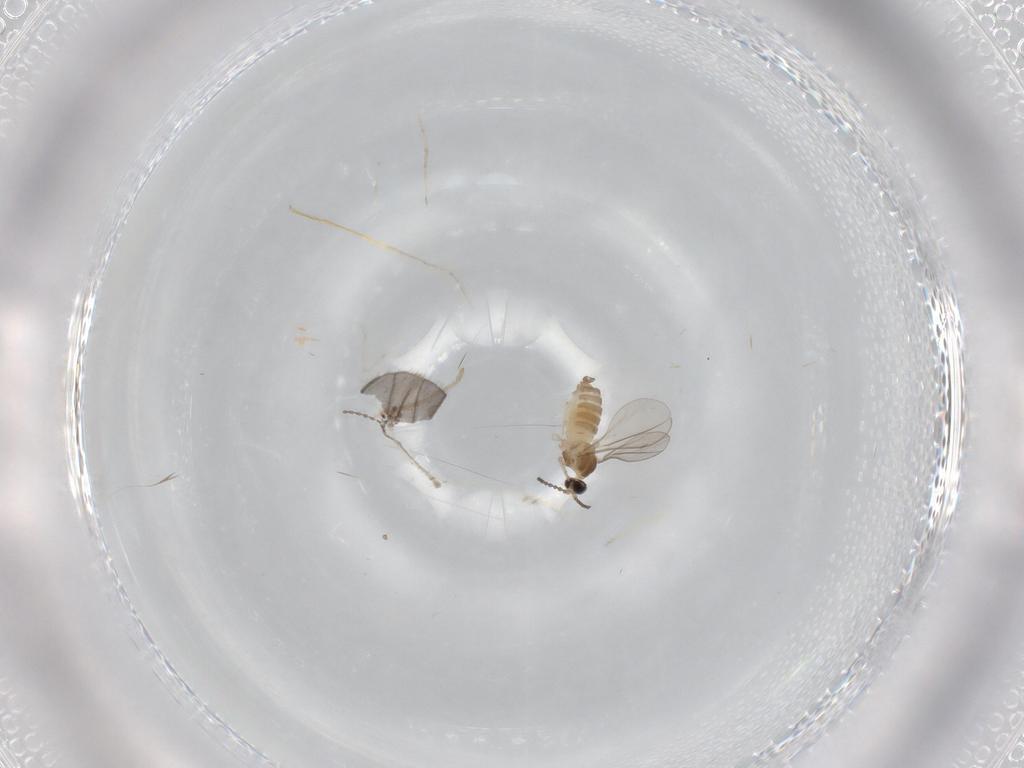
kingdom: Animalia
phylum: Arthropoda
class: Insecta
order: Diptera
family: Cecidomyiidae
